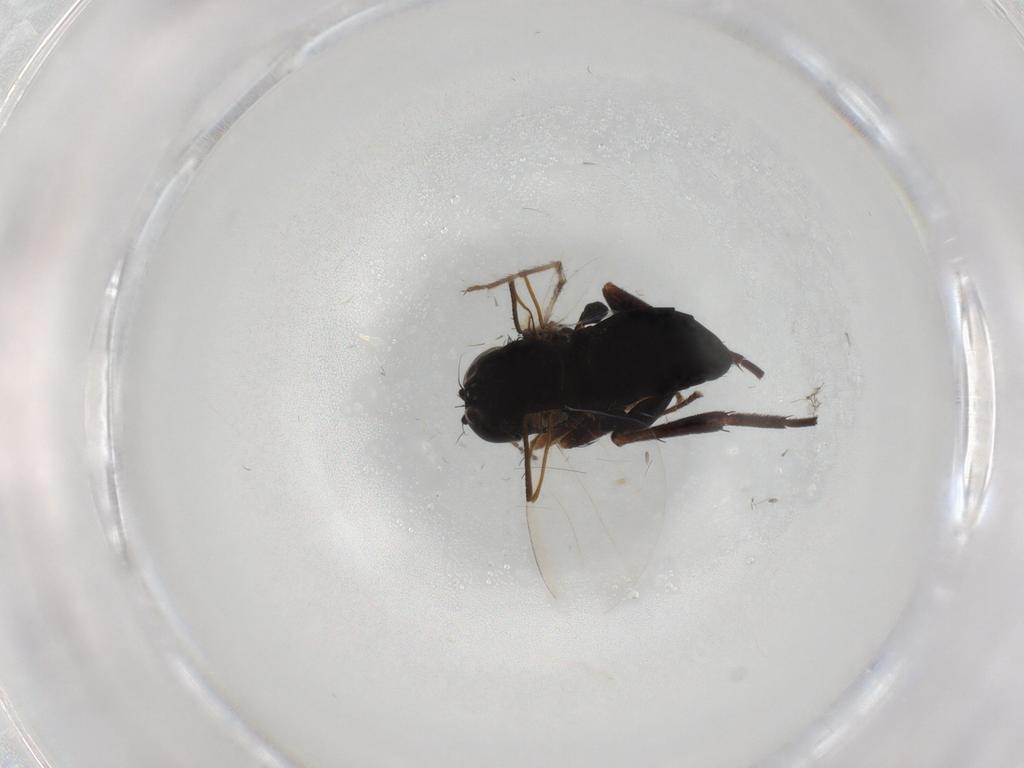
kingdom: Animalia
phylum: Arthropoda
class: Insecta
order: Diptera
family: Phoridae
